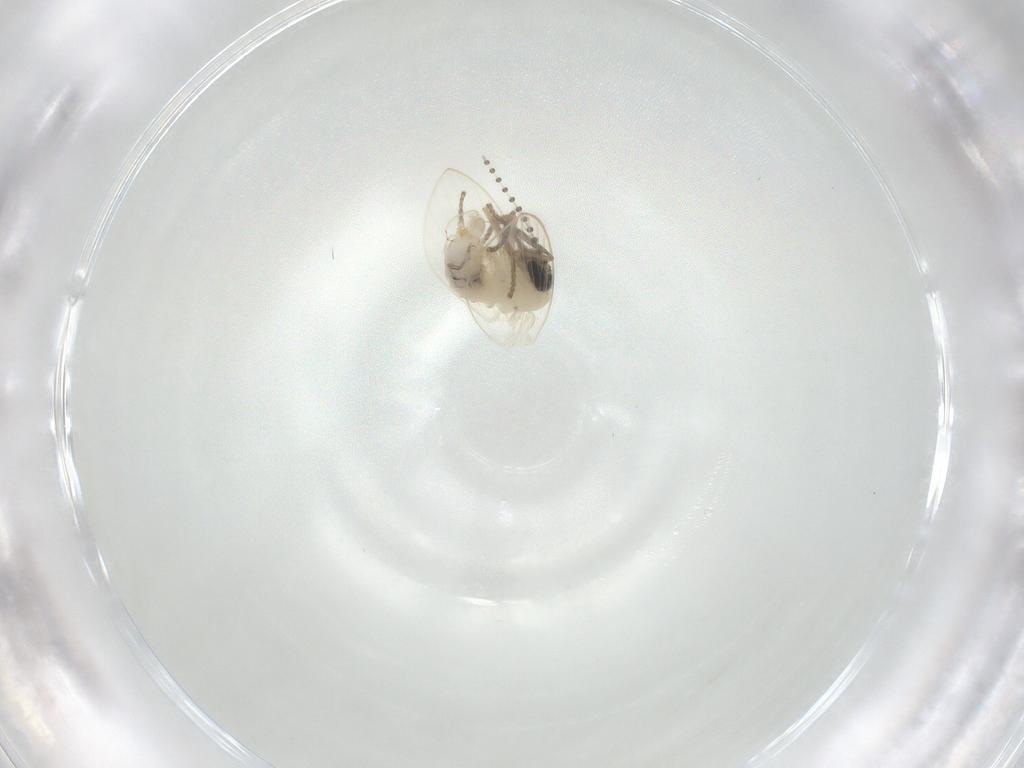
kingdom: Animalia
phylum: Arthropoda
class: Insecta
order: Diptera
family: Psychodidae
